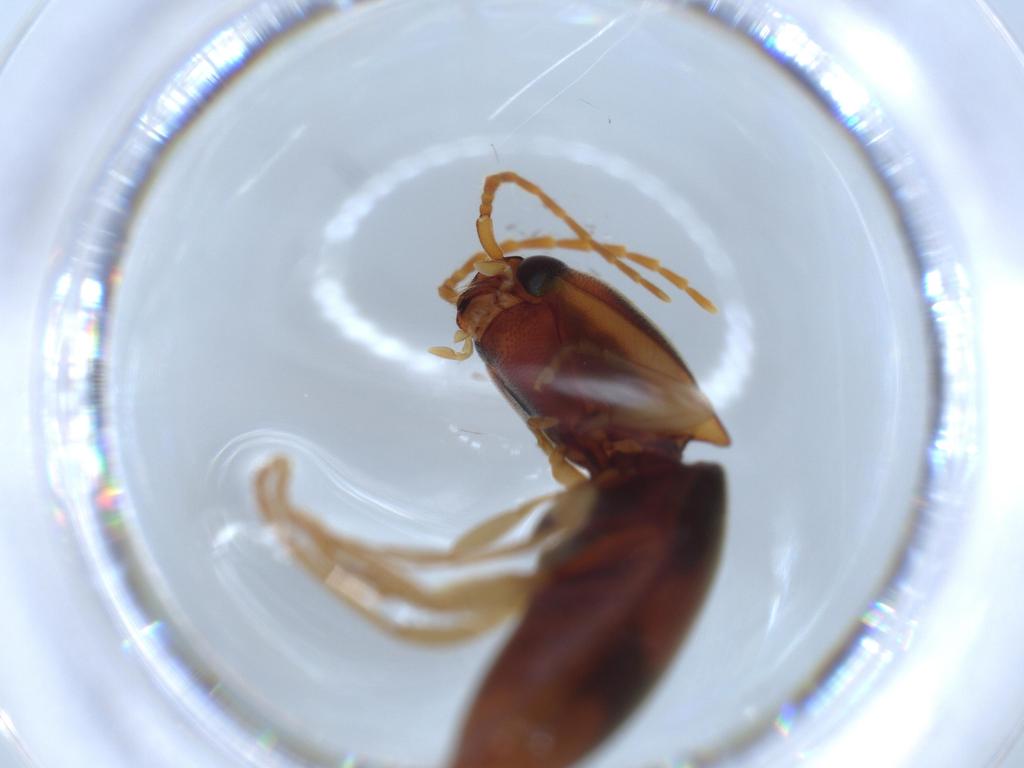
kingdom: Animalia
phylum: Arthropoda
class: Insecta
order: Coleoptera
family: Elateridae
